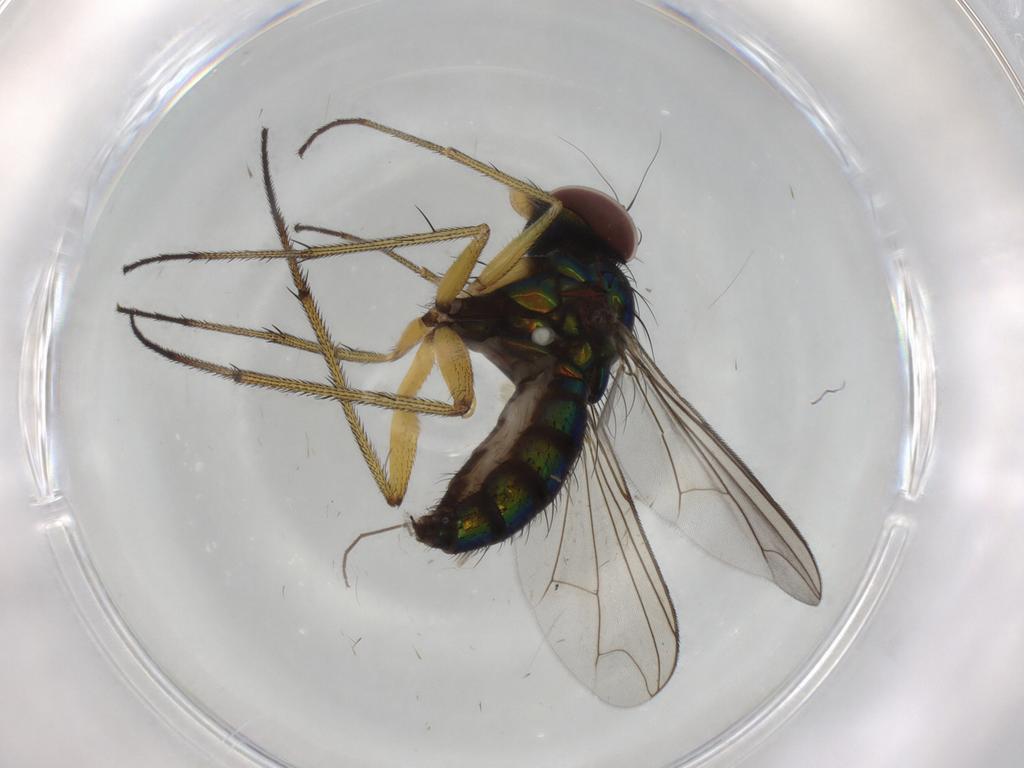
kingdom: Animalia
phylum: Arthropoda
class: Insecta
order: Diptera
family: Dolichopodidae
